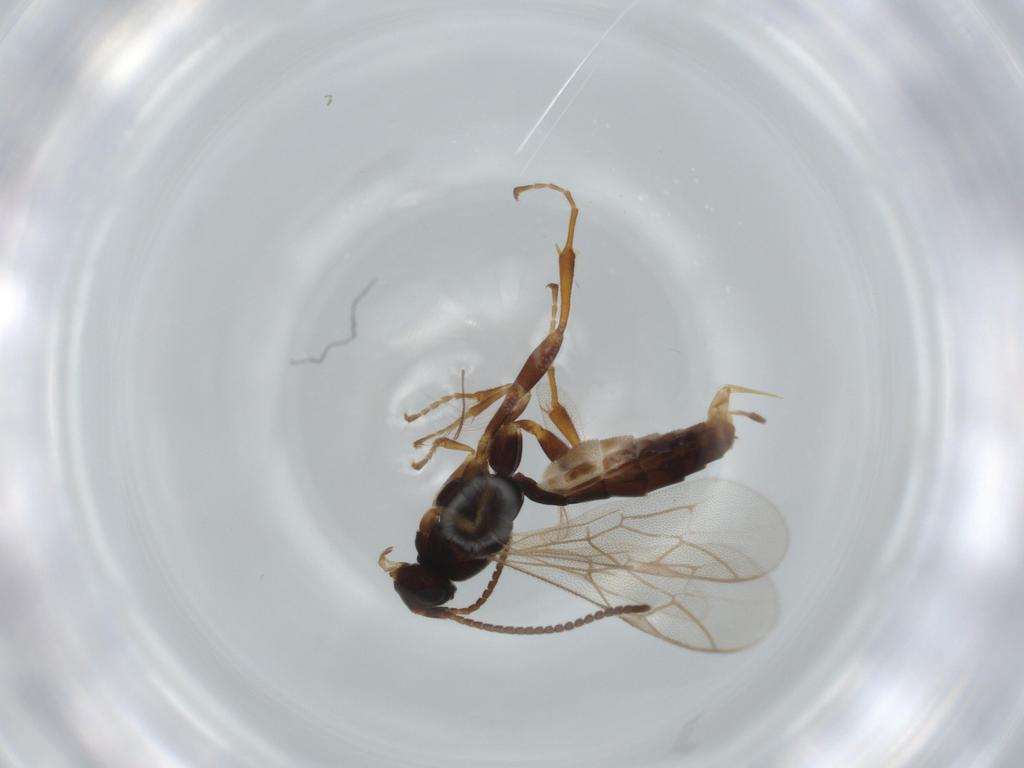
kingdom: Animalia
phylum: Arthropoda
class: Insecta
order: Hymenoptera
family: Ichneumonidae
